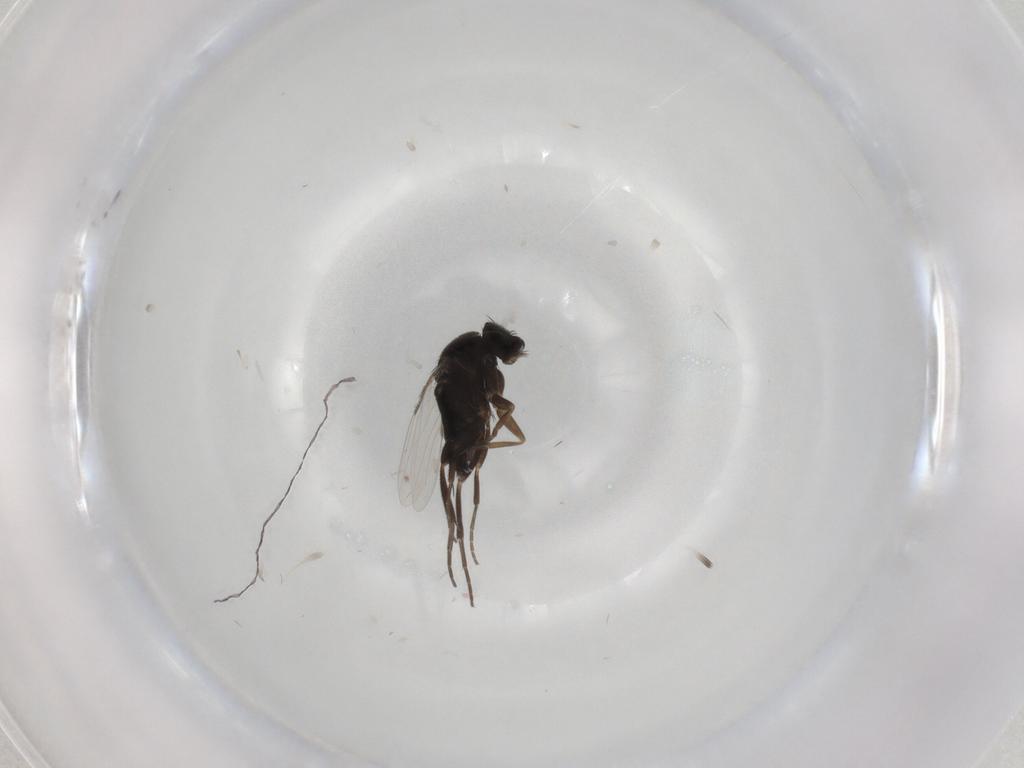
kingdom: Animalia
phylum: Arthropoda
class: Insecta
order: Diptera
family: Phoridae
